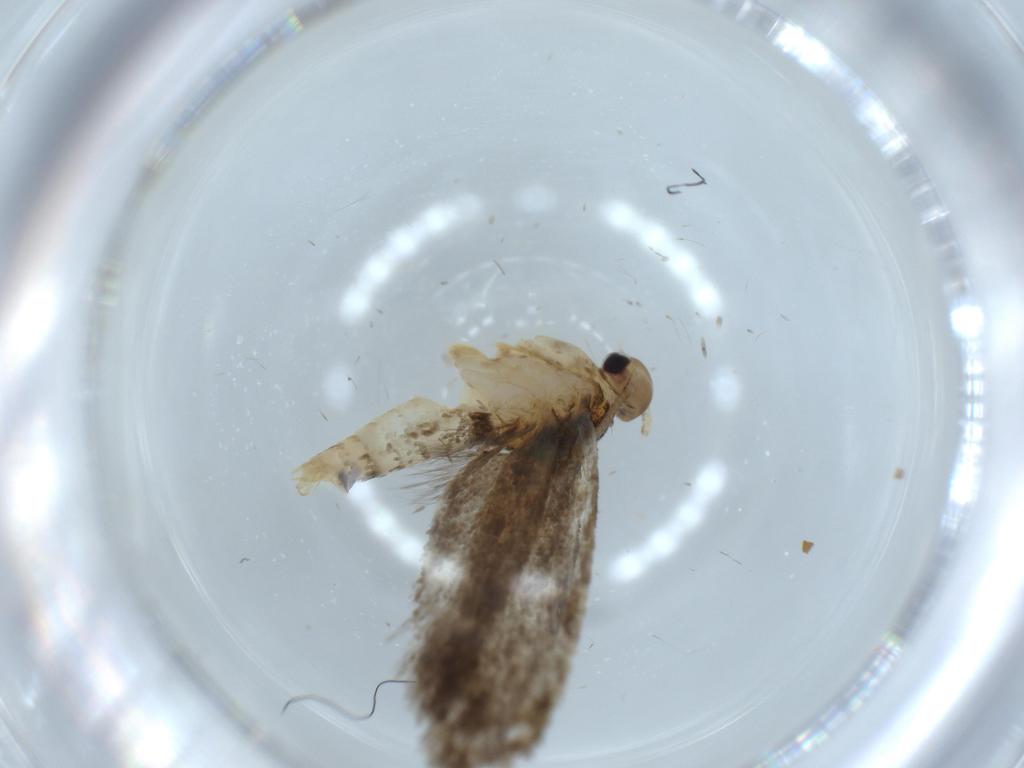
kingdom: Animalia
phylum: Arthropoda
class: Insecta
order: Lepidoptera
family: Tineidae
